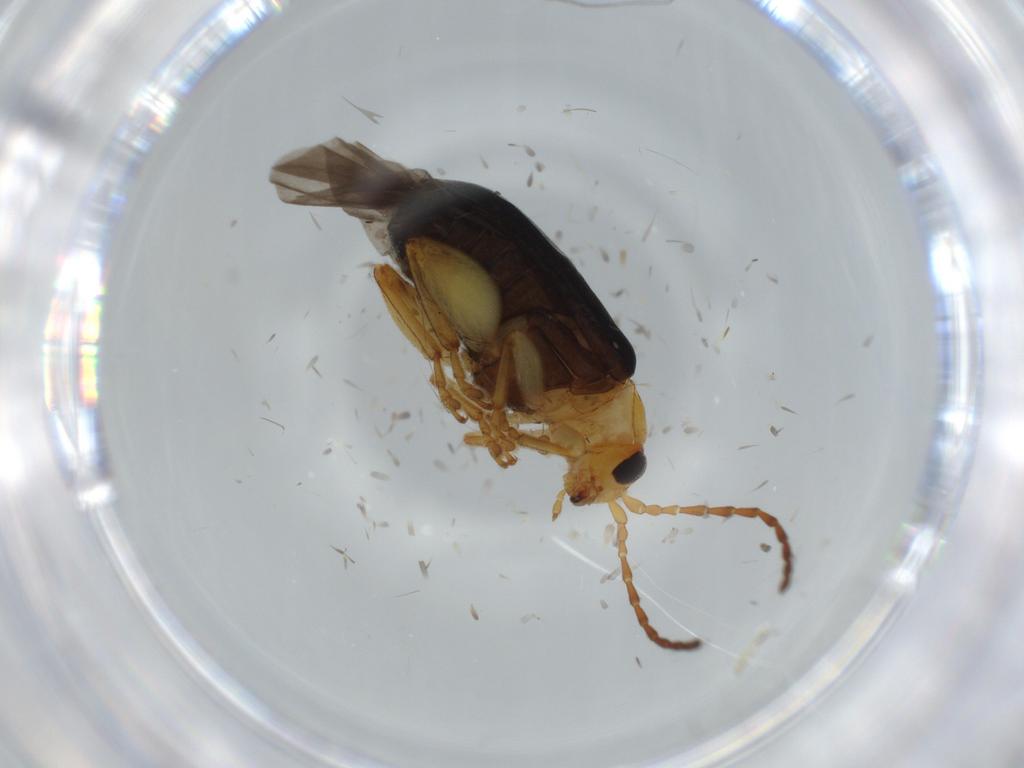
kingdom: Animalia
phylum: Arthropoda
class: Insecta
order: Coleoptera
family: Chrysomelidae
